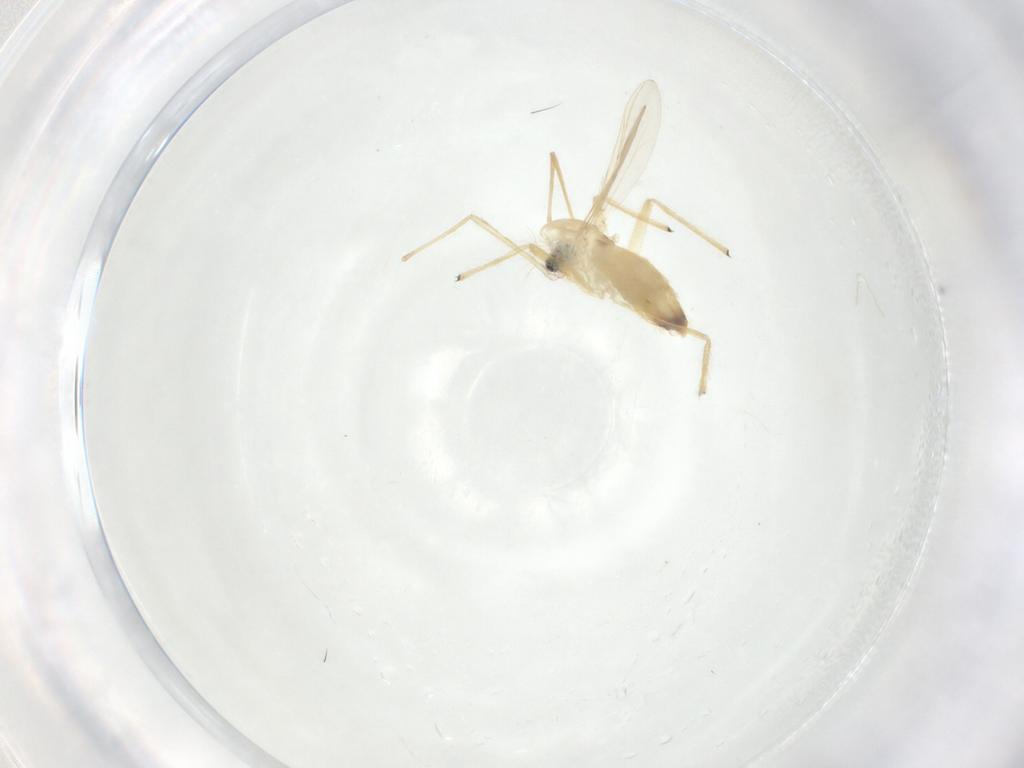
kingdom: Animalia
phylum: Arthropoda
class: Insecta
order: Diptera
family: Chironomidae
